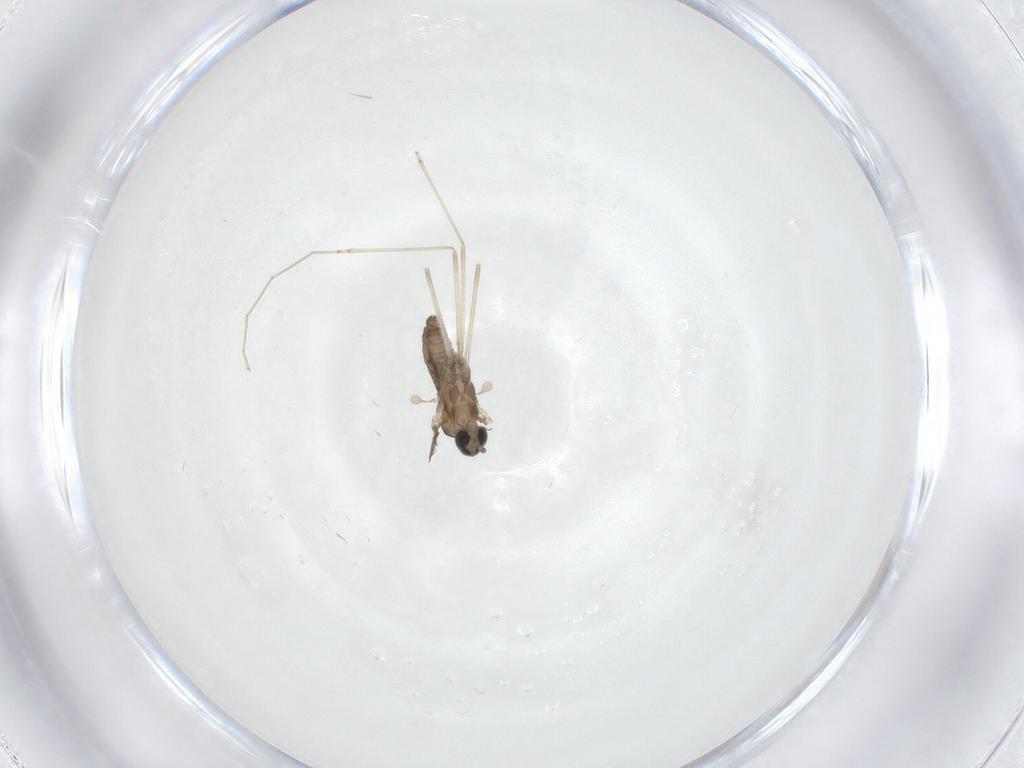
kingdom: Animalia
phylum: Arthropoda
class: Insecta
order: Diptera
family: Cecidomyiidae
